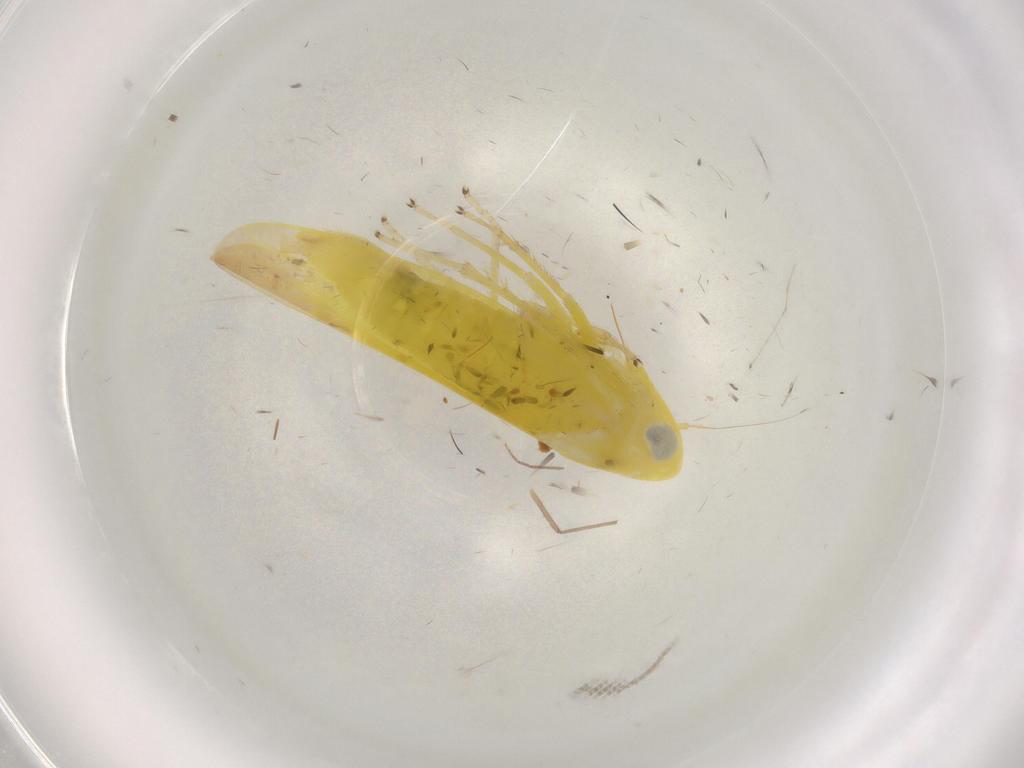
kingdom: Animalia
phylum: Arthropoda
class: Insecta
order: Hemiptera
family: Cicadellidae
